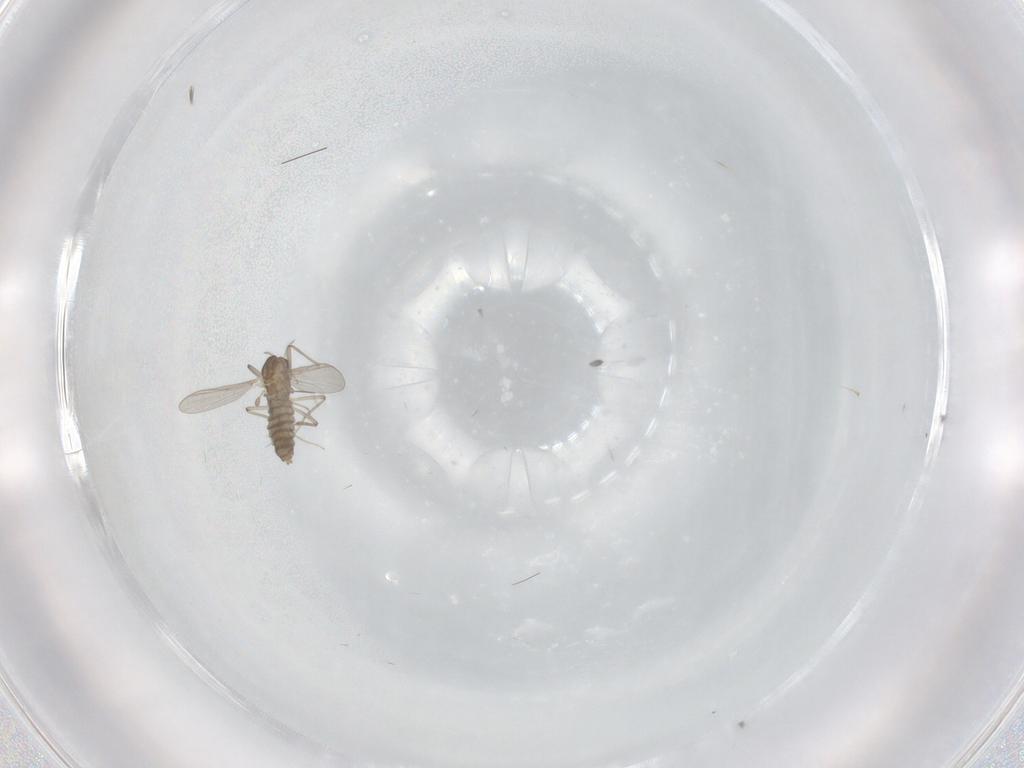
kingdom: Animalia
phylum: Arthropoda
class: Insecta
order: Diptera
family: Chironomidae
